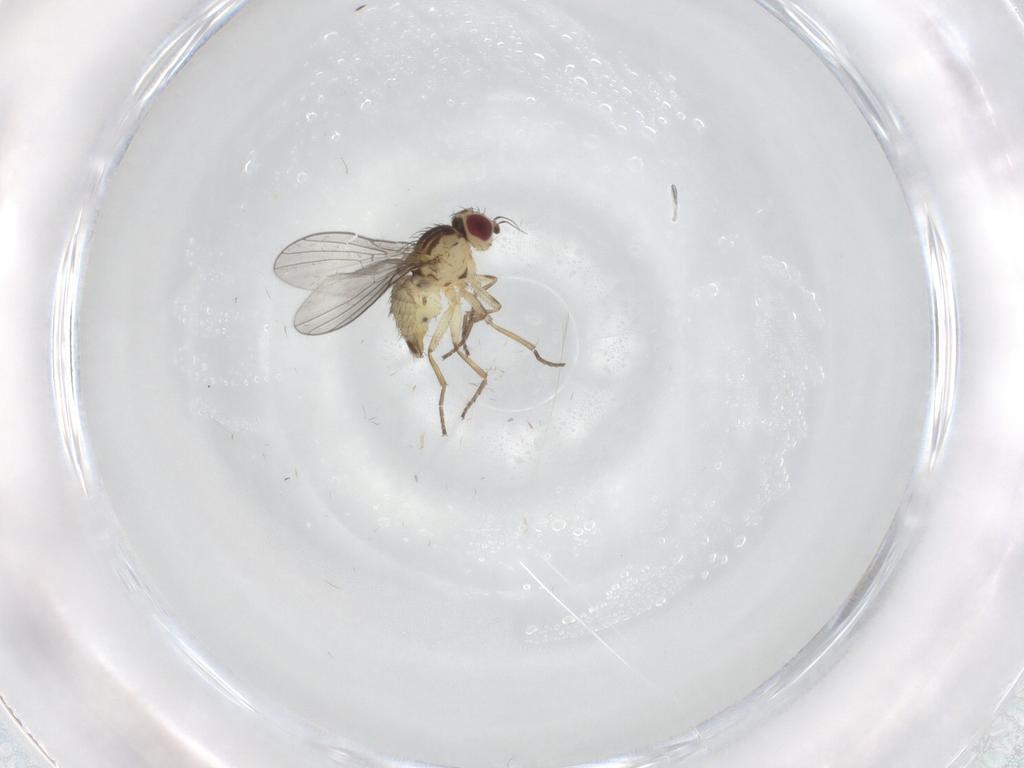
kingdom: Animalia
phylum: Arthropoda
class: Insecta
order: Diptera
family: Agromyzidae
